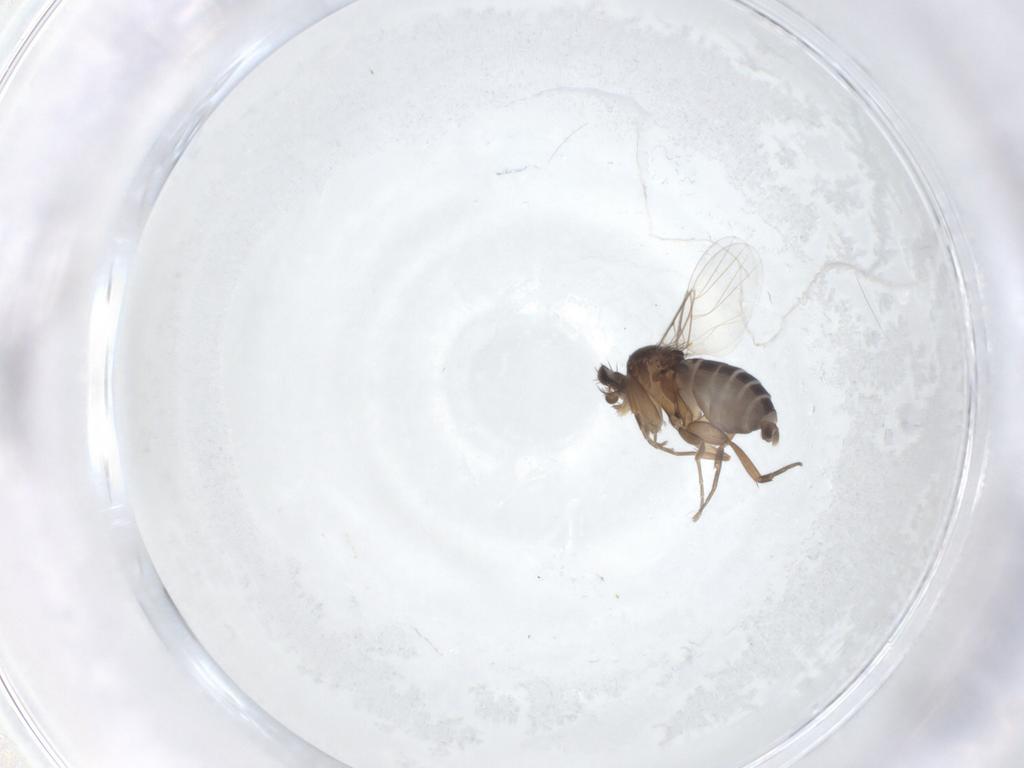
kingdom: Animalia
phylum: Arthropoda
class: Insecta
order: Diptera
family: Phoridae
